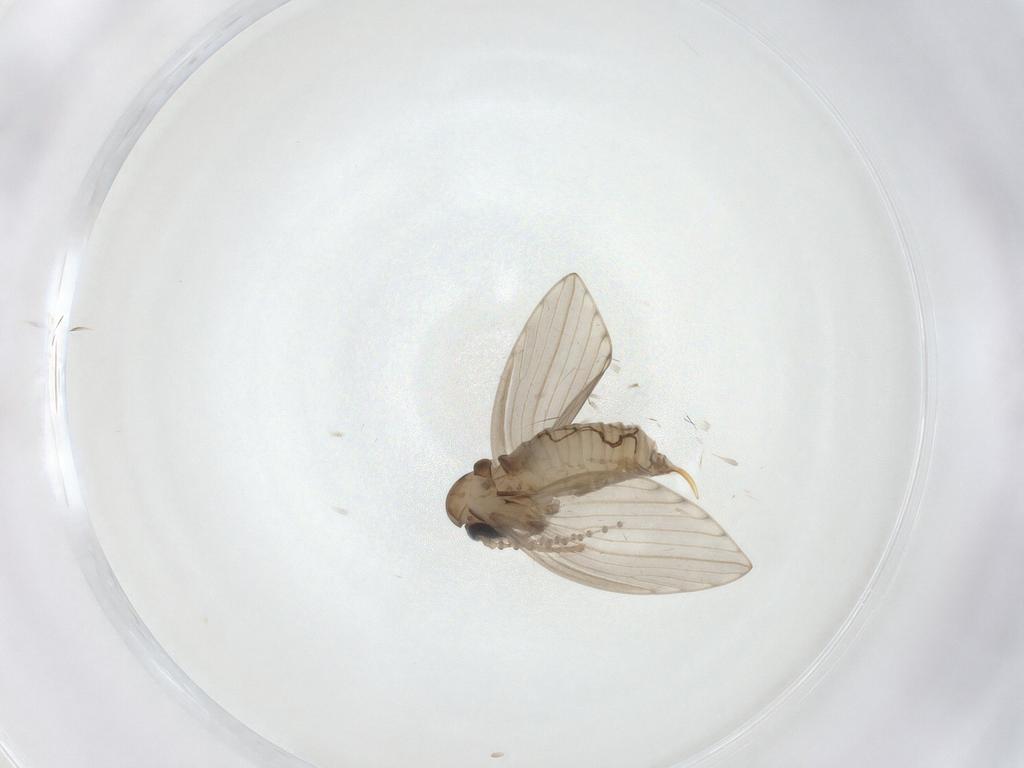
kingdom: Animalia
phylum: Arthropoda
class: Insecta
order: Diptera
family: Psychodidae
